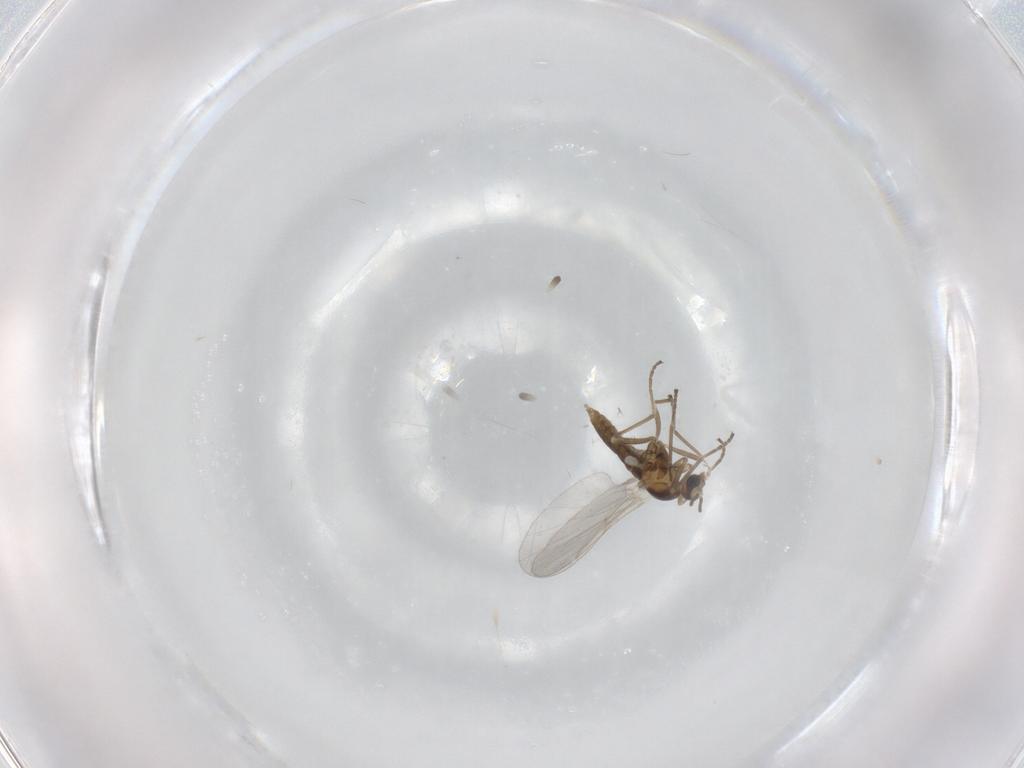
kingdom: Animalia
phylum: Arthropoda
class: Insecta
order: Diptera
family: Cecidomyiidae
